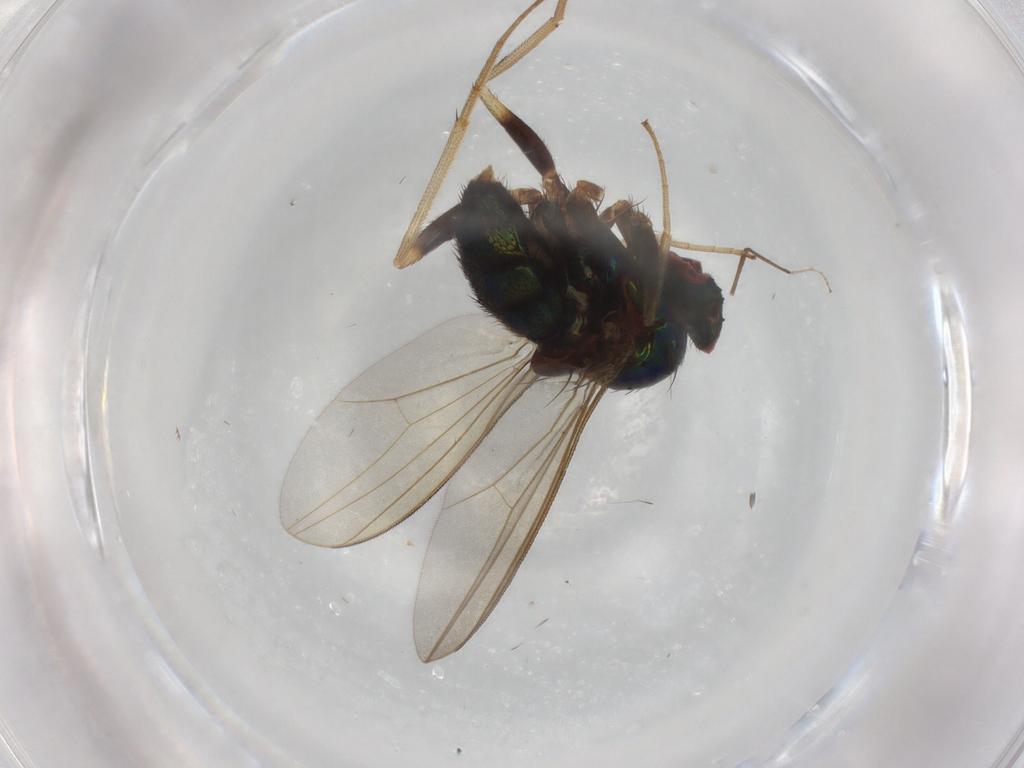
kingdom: Animalia
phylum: Arthropoda
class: Insecta
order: Diptera
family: Dolichopodidae
